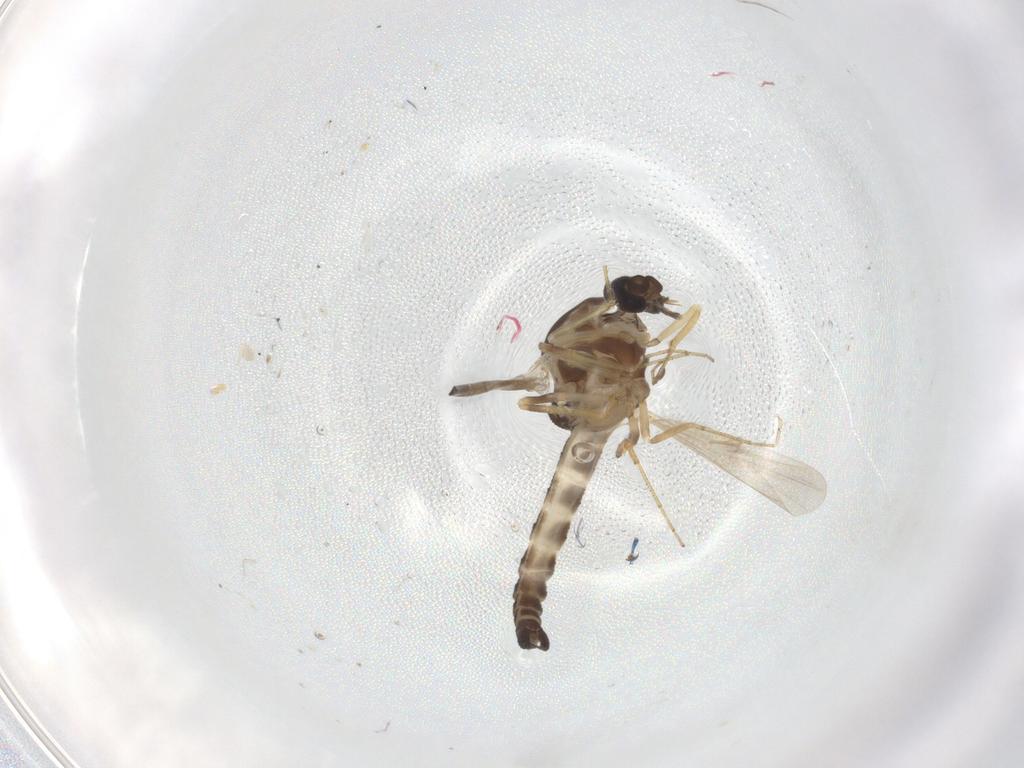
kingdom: Animalia
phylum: Arthropoda
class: Insecta
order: Diptera
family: Ceratopogonidae
